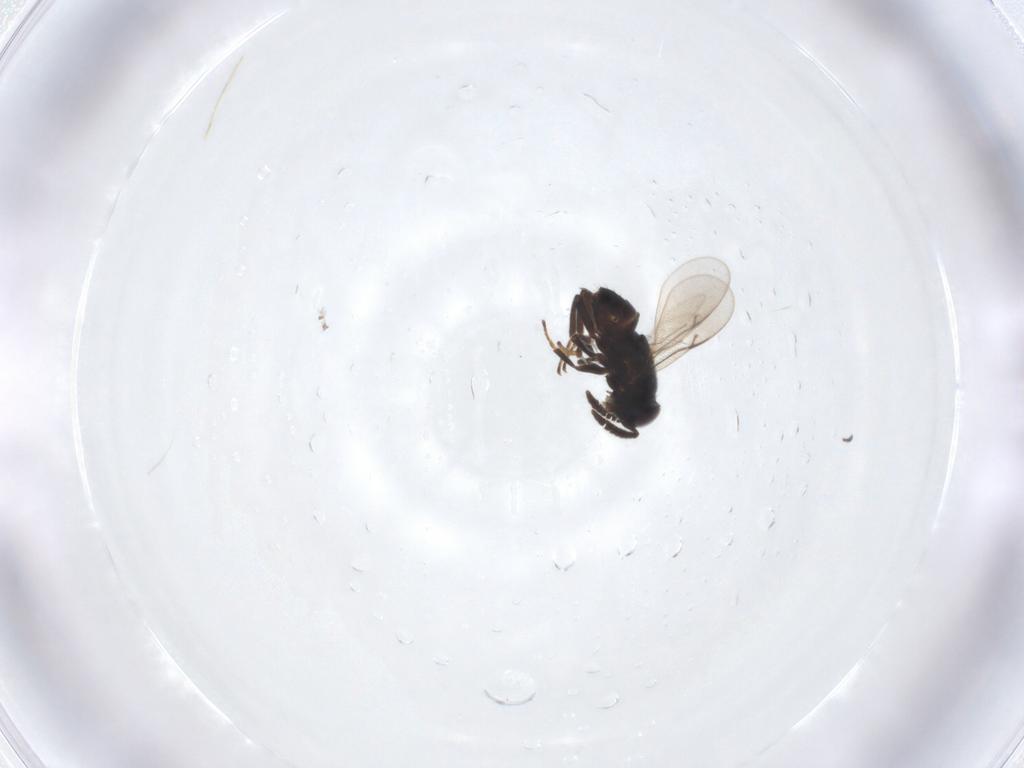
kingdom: Animalia
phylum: Arthropoda
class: Insecta
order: Hymenoptera
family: Encyrtidae
